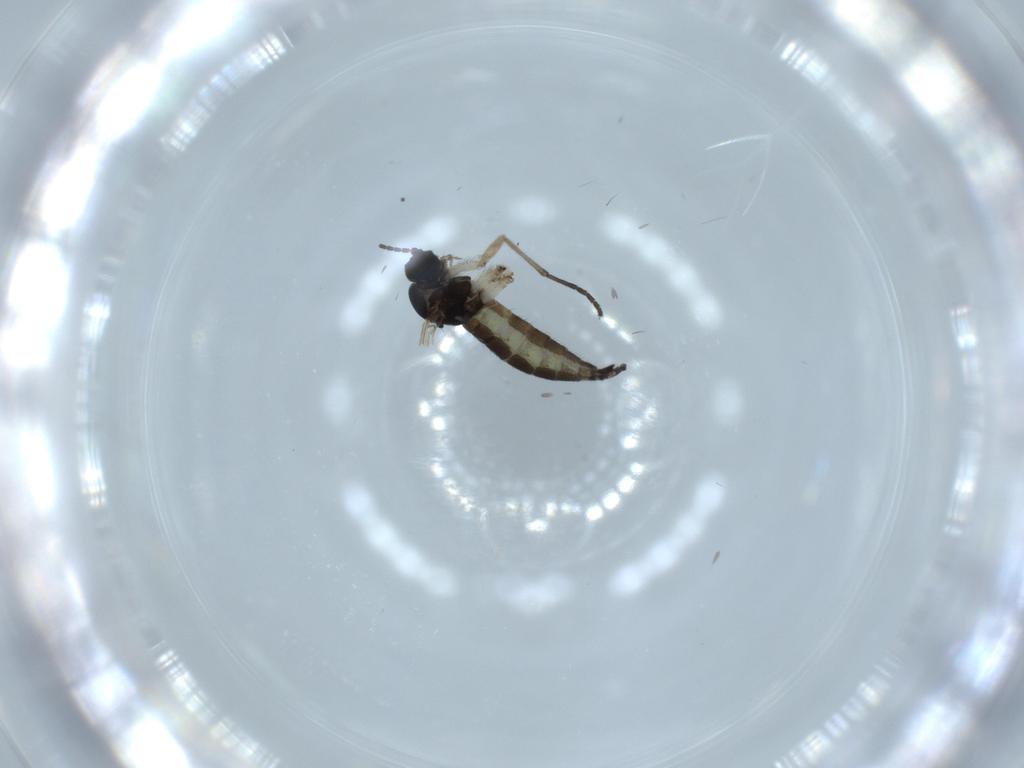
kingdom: Animalia
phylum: Arthropoda
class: Insecta
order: Diptera
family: Sciaridae
